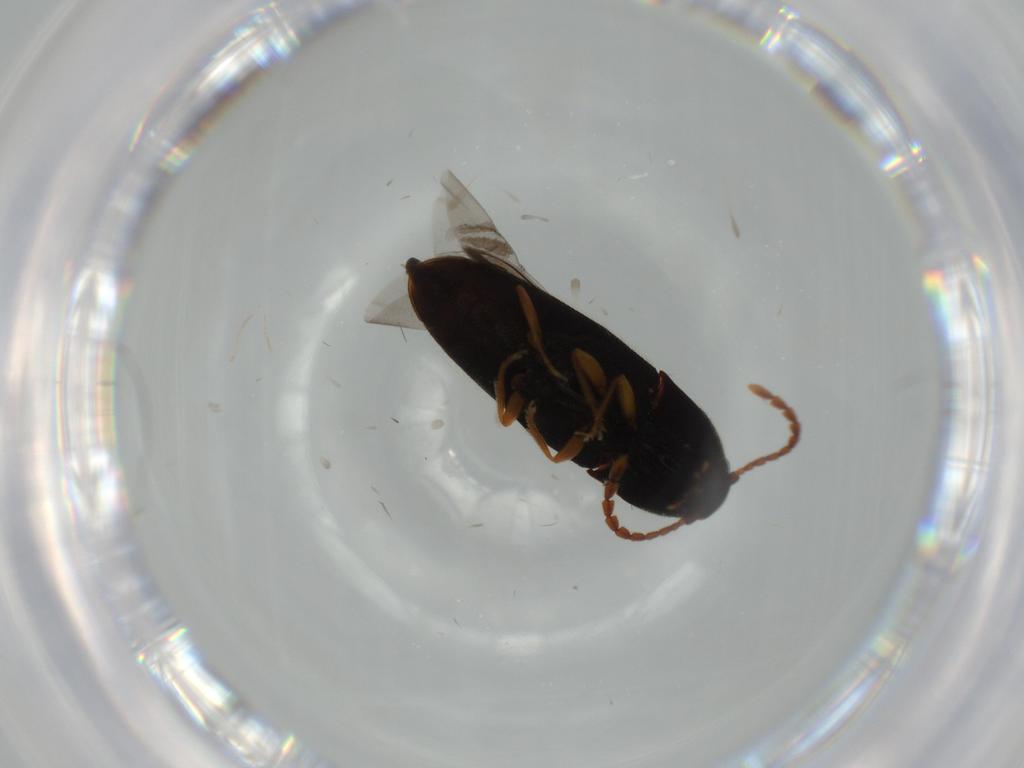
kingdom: Animalia
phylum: Arthropoda
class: Insecta
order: Coleoptera
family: Elateridae
